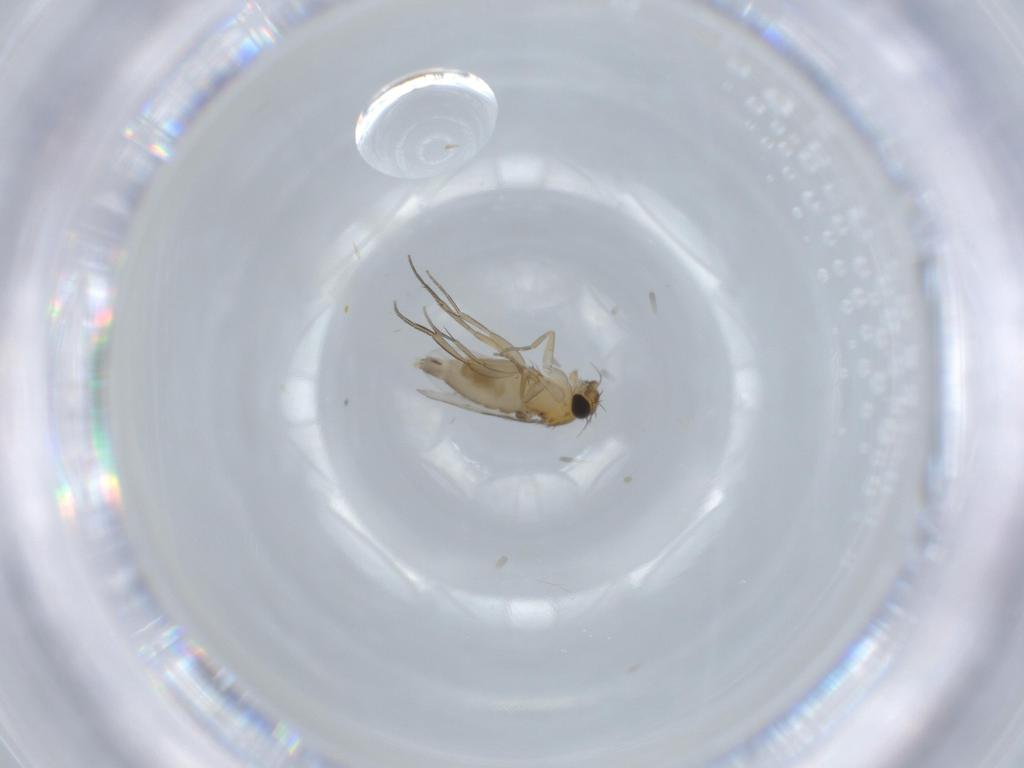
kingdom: Animalia
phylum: Arthropoda
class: Insecta
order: Diptera
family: Phoridae
